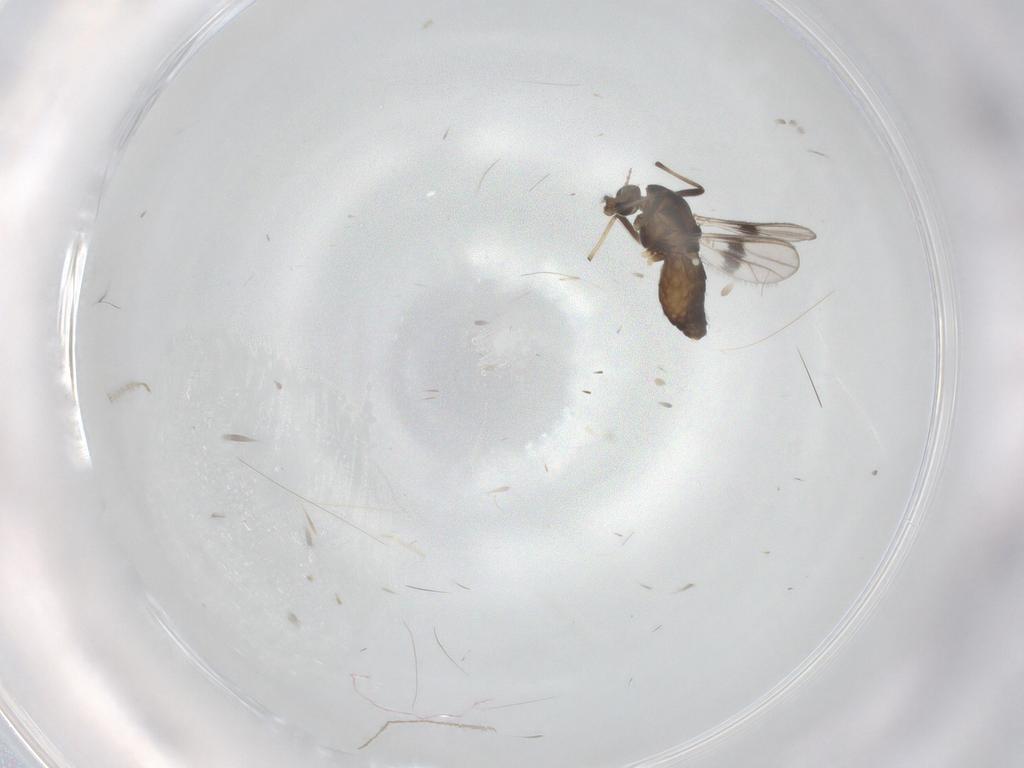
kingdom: Animalia
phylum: Arthropoda
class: Insecta
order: Diptera
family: Chironomidae
